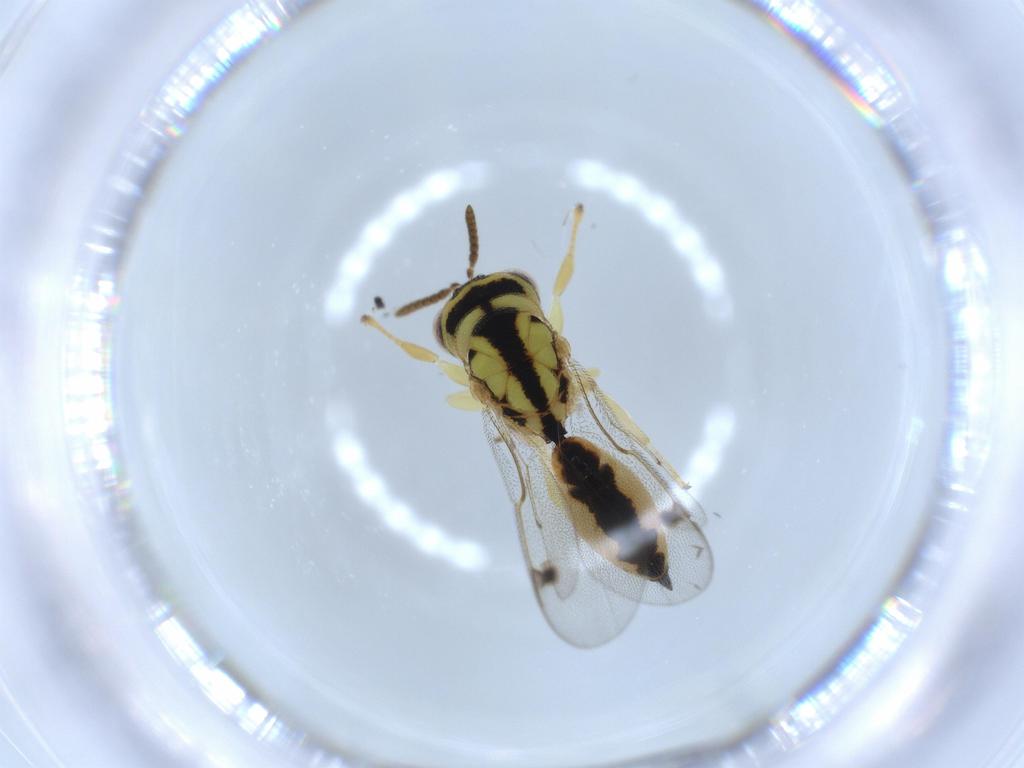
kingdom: Animalia
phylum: Arthropoda
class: Insecta
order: Hymenoptera
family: Eurytomidae
